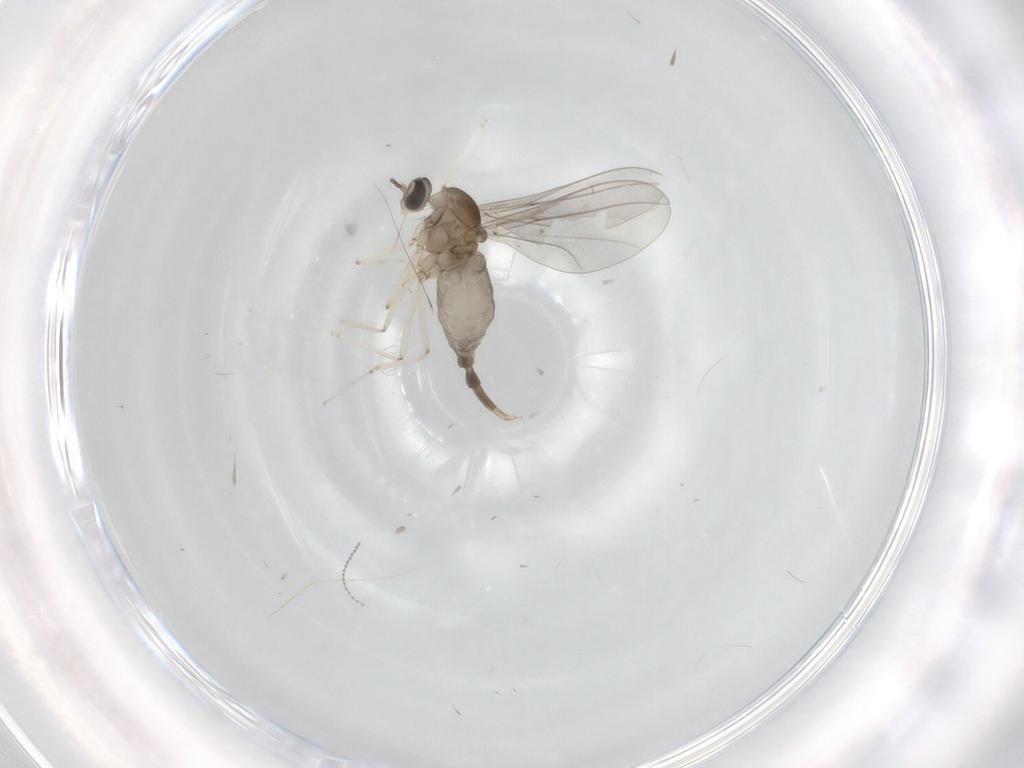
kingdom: Animalia
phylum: Arthropoda
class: Insecta
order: Diptera
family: Cecidomyiidae
